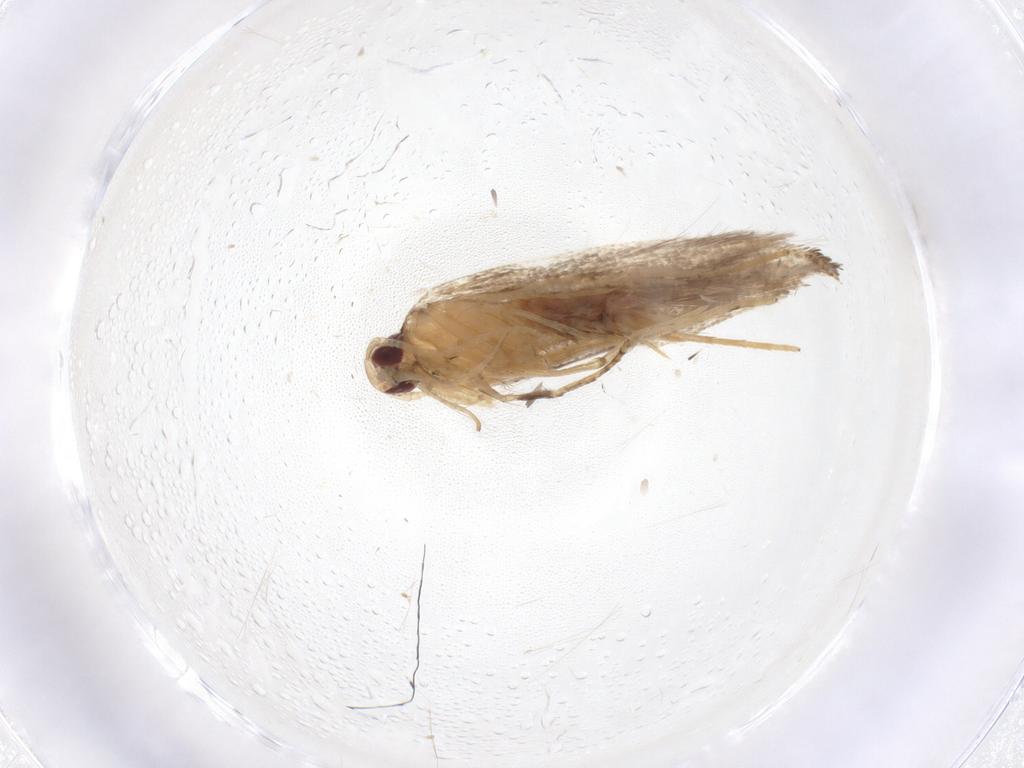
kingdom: Animalia
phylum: Arthropoda
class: Insecta
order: Lepidoptera
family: Cosmopterigidae
